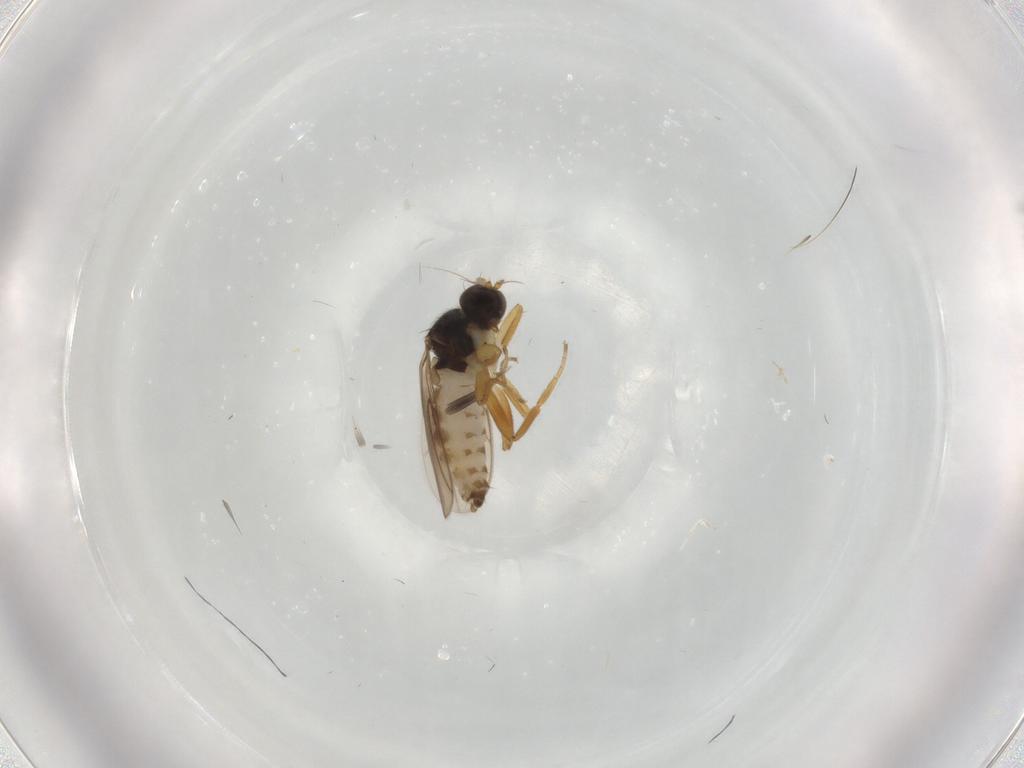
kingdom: Animalia
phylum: Arthropoda
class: Insecta
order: Diptera
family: Hybotidae
